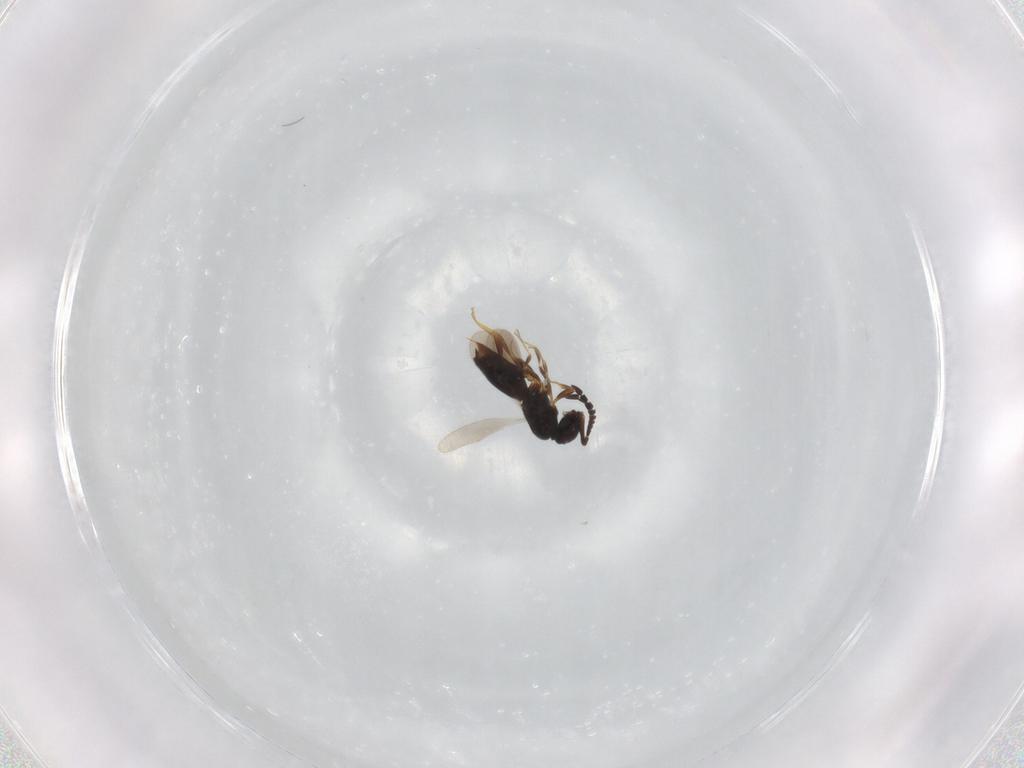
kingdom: Animalia
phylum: Arthropoda
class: Insecta
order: Hymenoptera
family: Ceraphronidae
